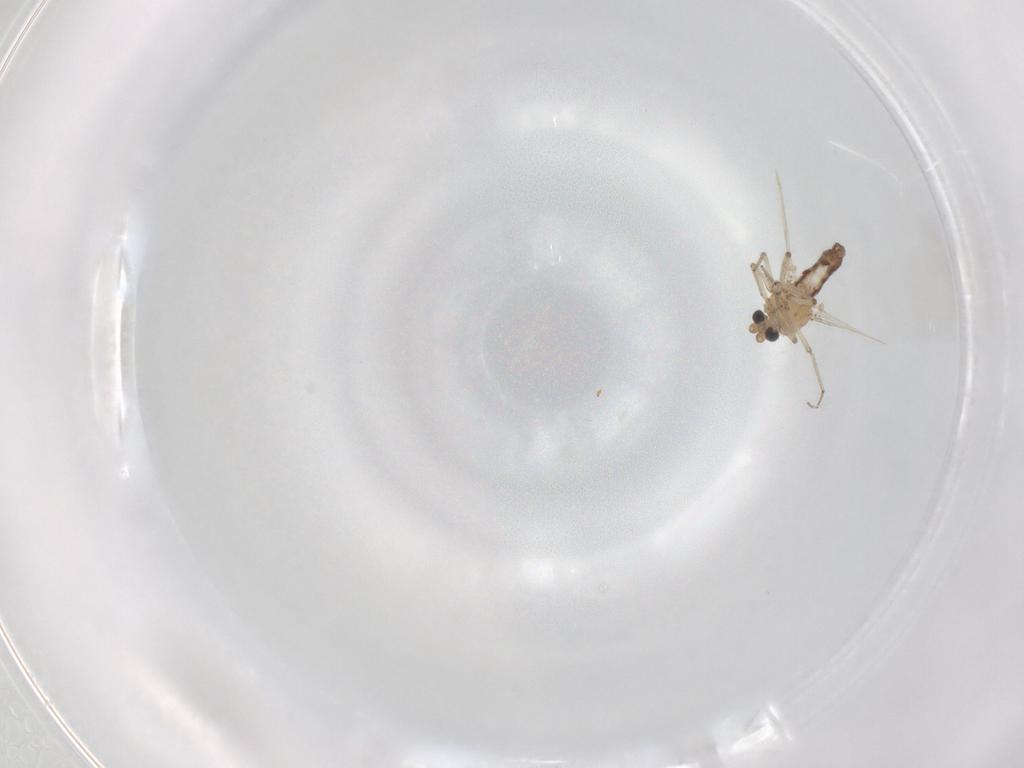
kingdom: Animalia
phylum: Arthropoda
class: Insecta
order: Diptera
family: Ceratopogonidae
